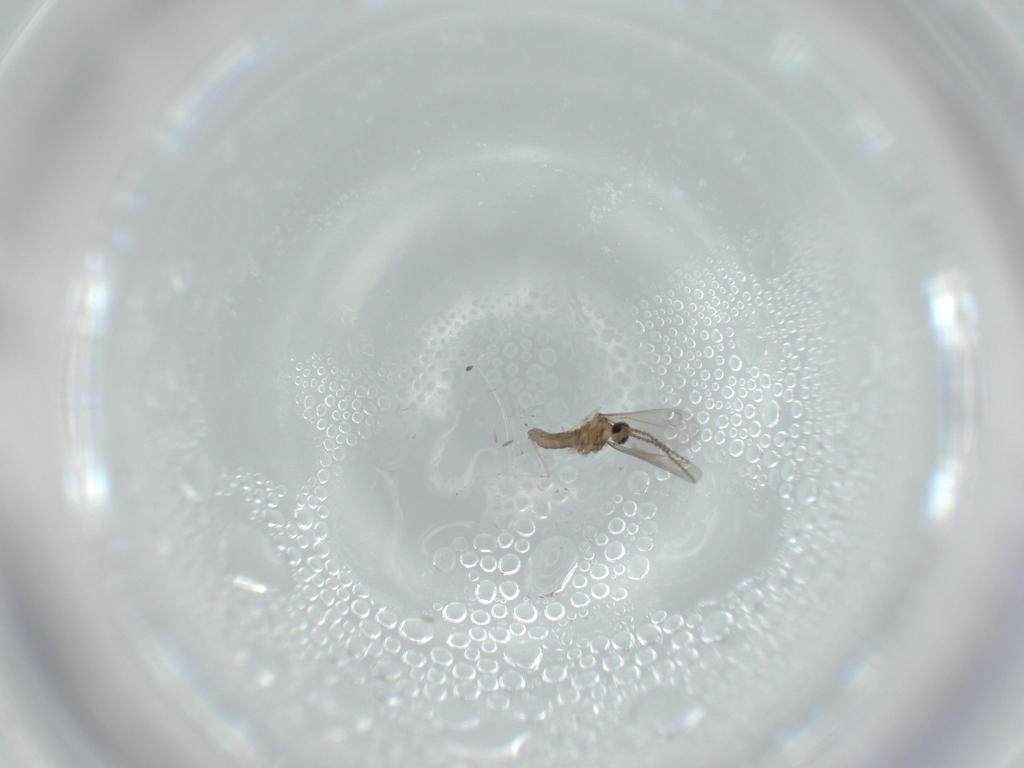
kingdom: Animalia
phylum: Arthropoda
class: Insecta
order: Diptera
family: Cecidomyiidae
